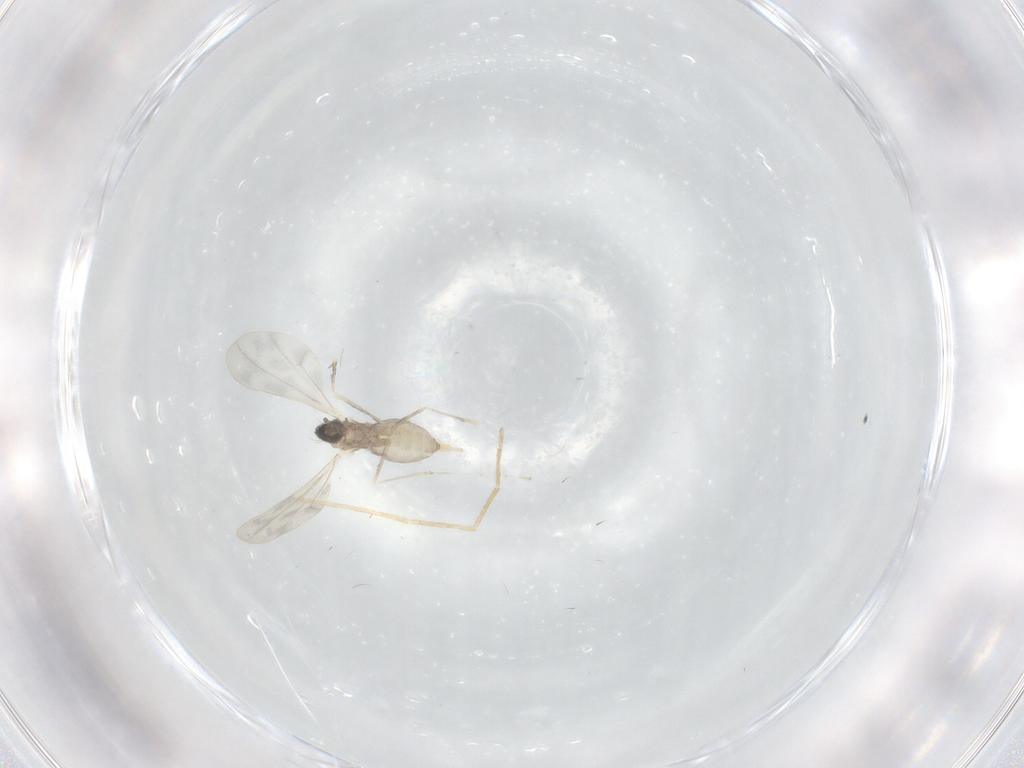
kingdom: Animalia
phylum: Arthropoda
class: Insecta
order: Diptera
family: Cecidomyiidae
